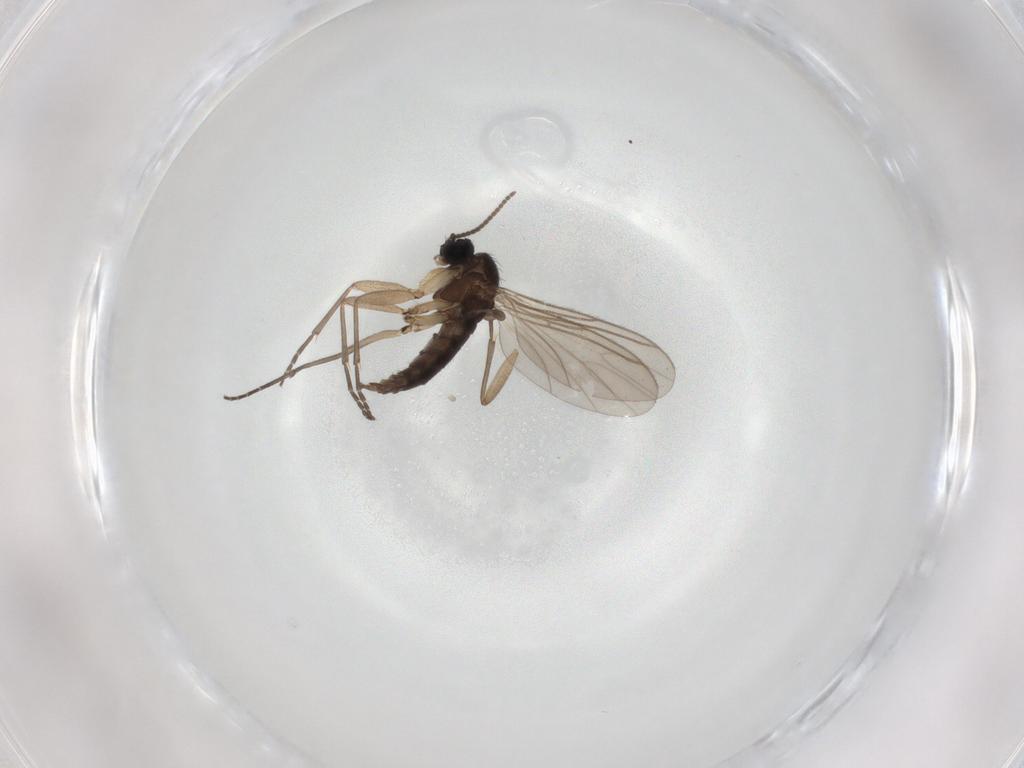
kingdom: Animalia
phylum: Arthropoda
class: Insecta
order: Diptera
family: Sciaridae
